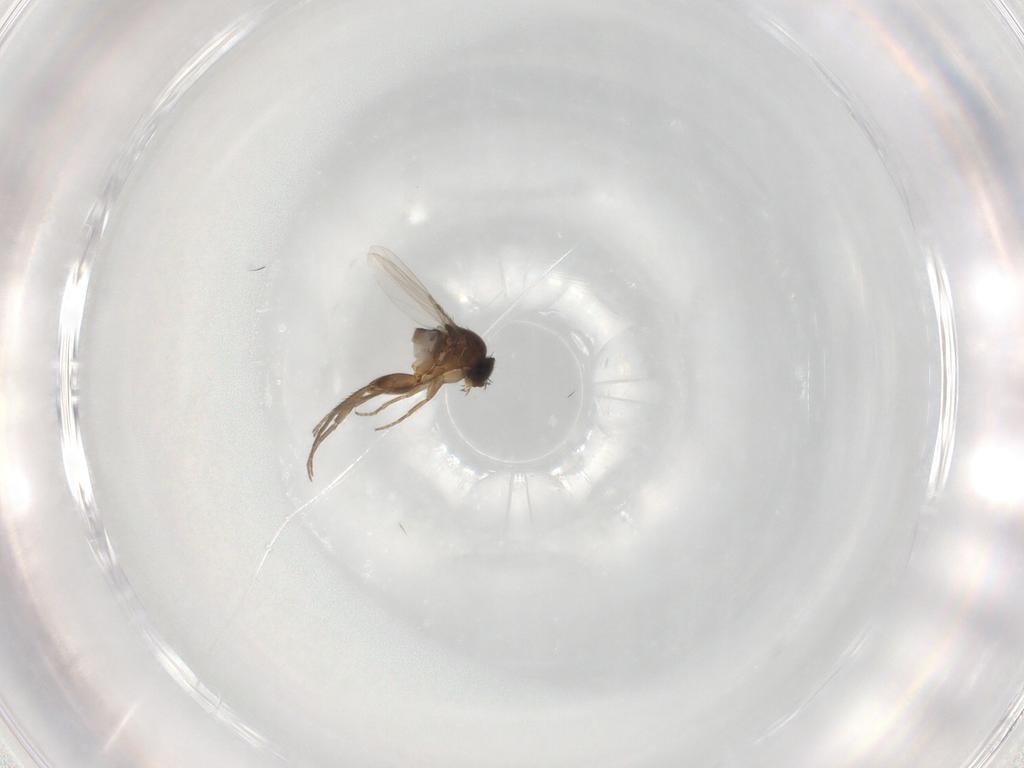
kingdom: Animalia
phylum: Arthropoda
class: Insecta
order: Diptera
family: Phoridae
